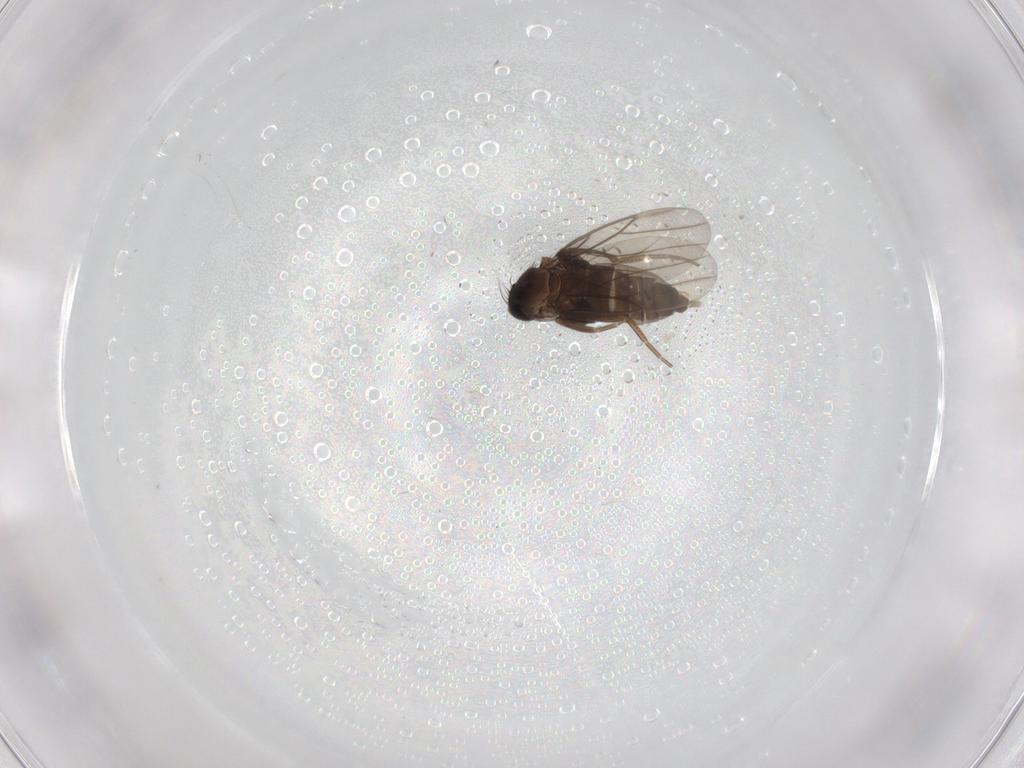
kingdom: Animalia
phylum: Arthropoda
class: Insecta
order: Diptera
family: Phoridae
